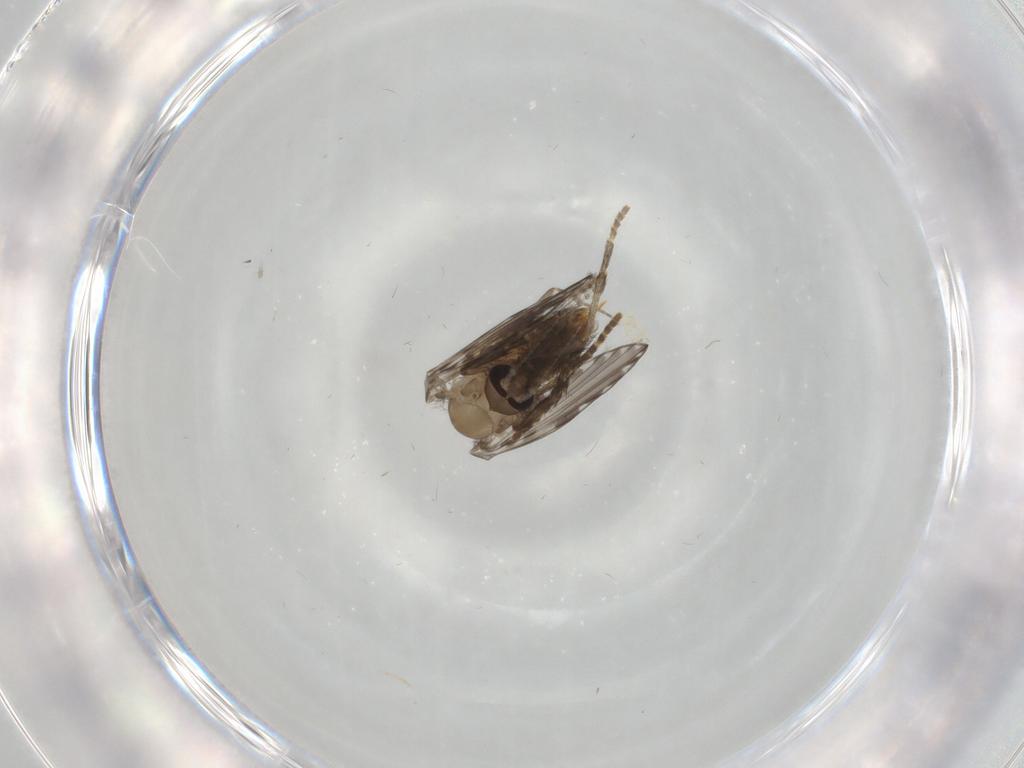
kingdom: Animalia
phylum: Arthropoda
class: Insecta
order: Diptera
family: Psychodidae
